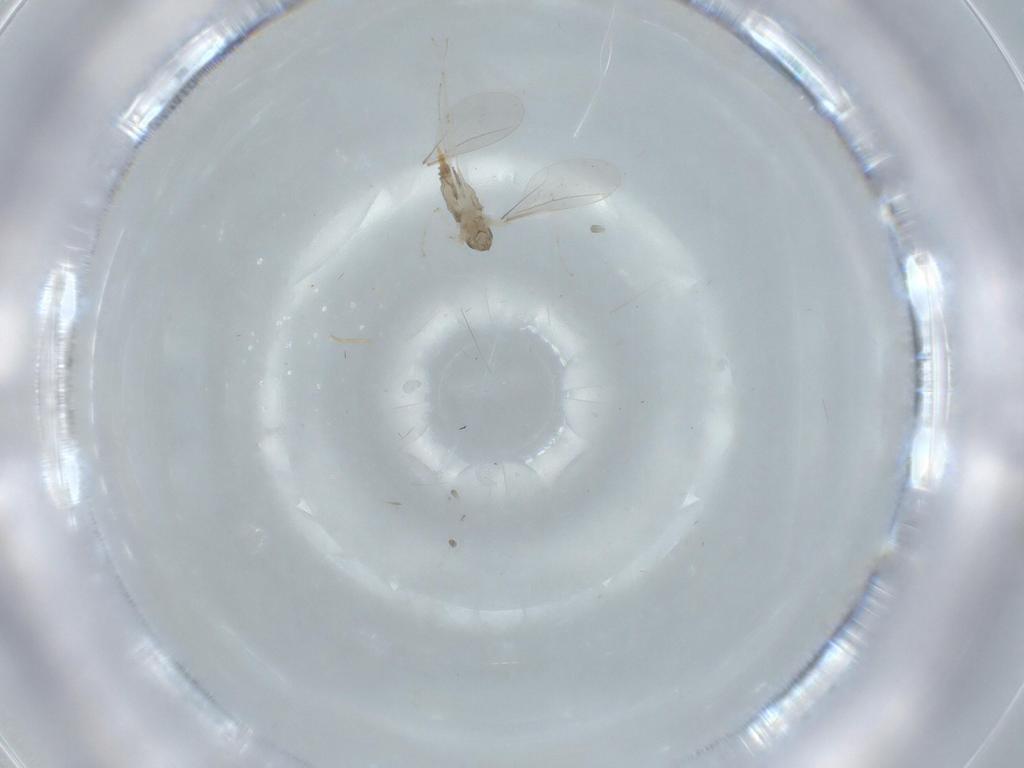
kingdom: Animalia
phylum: Arthropoda
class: Insecta
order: Diptera
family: Cecidomyiidae
